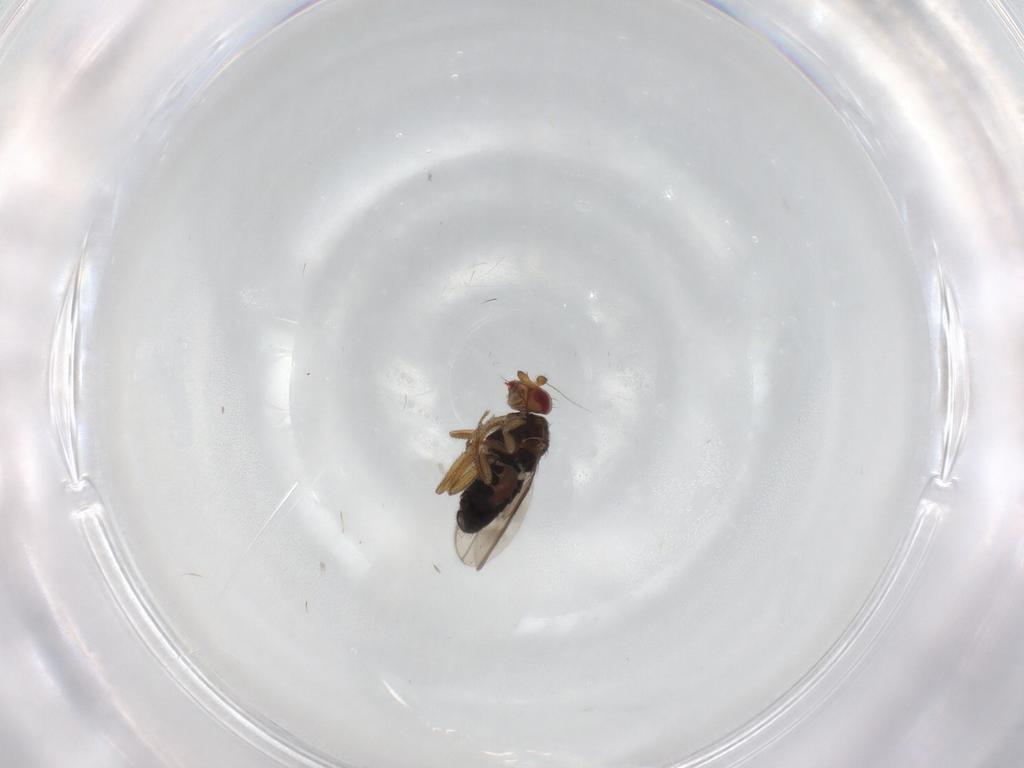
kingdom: Animalia
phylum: Arthropoda
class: Insecta
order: Diptera
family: Sphaeroceridae
